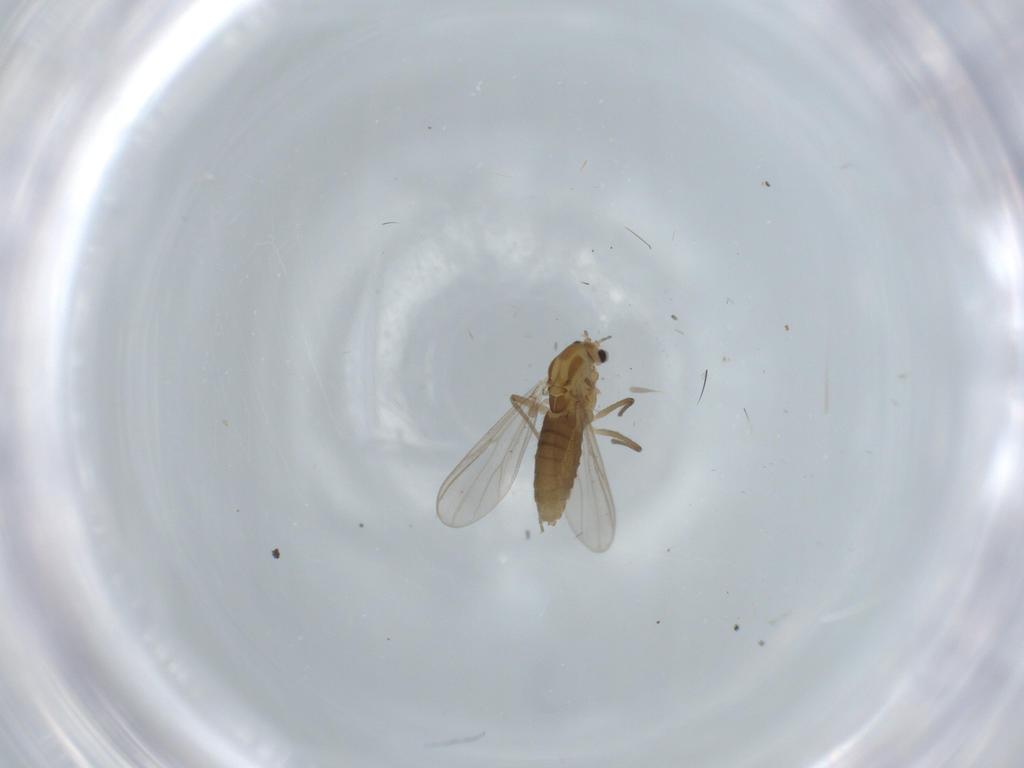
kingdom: Animalia
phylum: Arthropoda
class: Insecta
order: Diptera
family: Chironomidae
